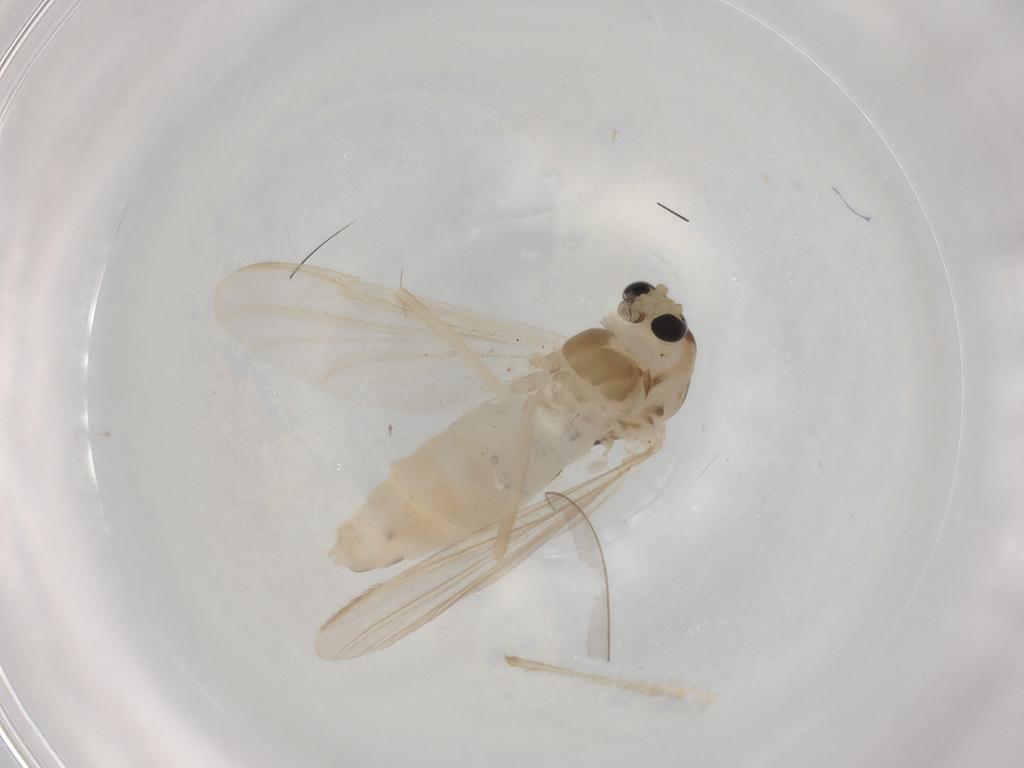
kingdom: Animalia
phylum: Arthropoda
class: Insecta
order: Diptera
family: Chironomidae
